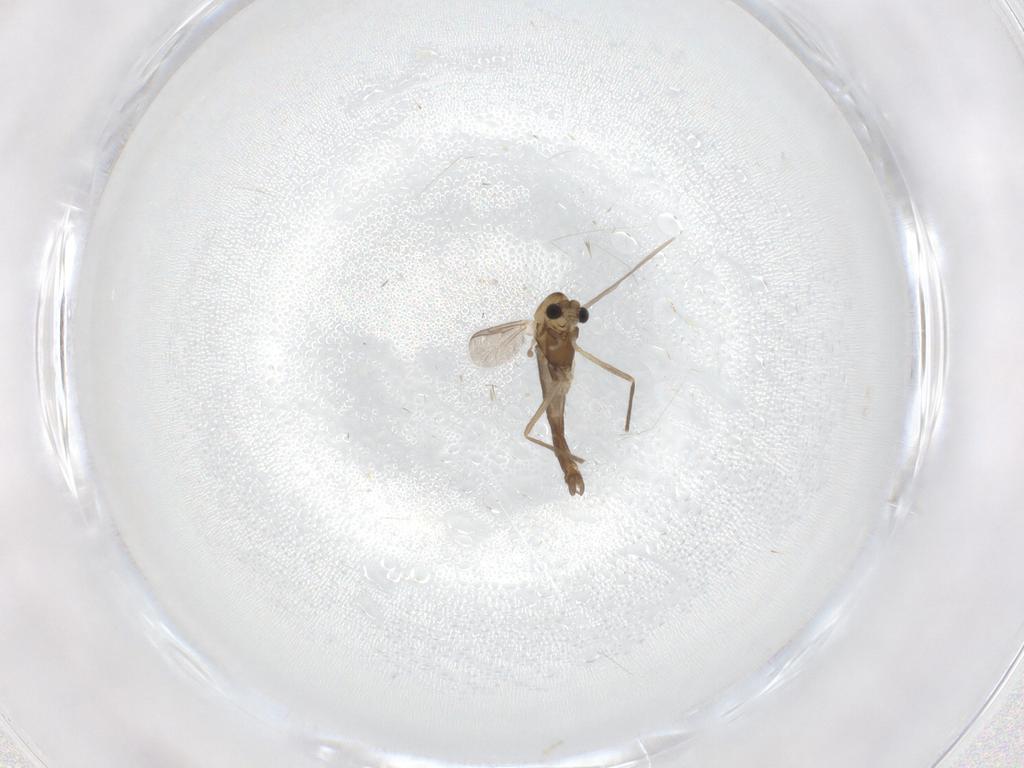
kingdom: Animalia
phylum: Arthropoda
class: Insecta
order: Diptera
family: Chironomidae
